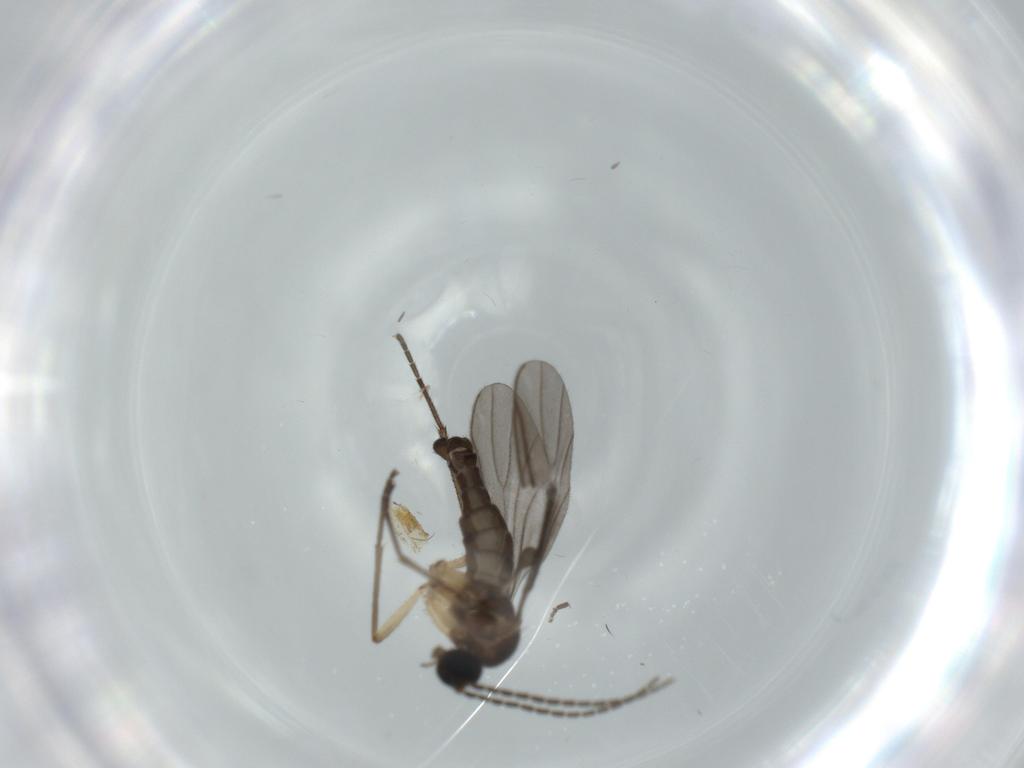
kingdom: Animalia
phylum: Arthropoda
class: Insecta
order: Diptera
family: Sciaridae
